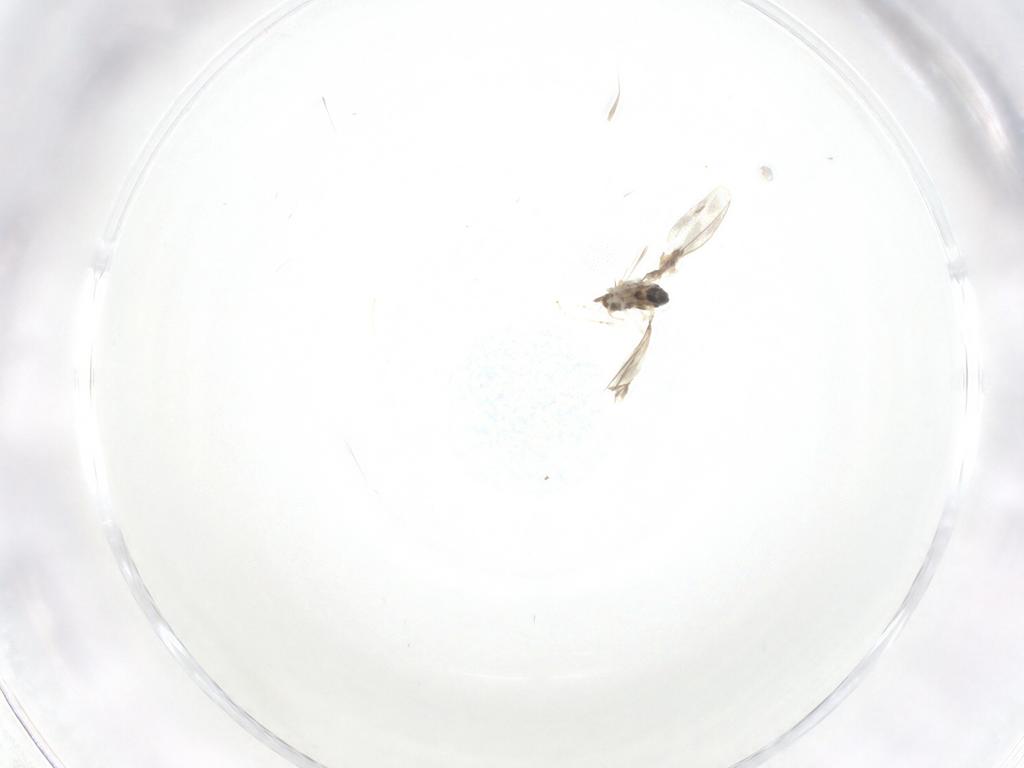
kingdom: Animalia
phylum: Arthropoda
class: Insecta
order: Diptera
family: Cecidomyiidae
